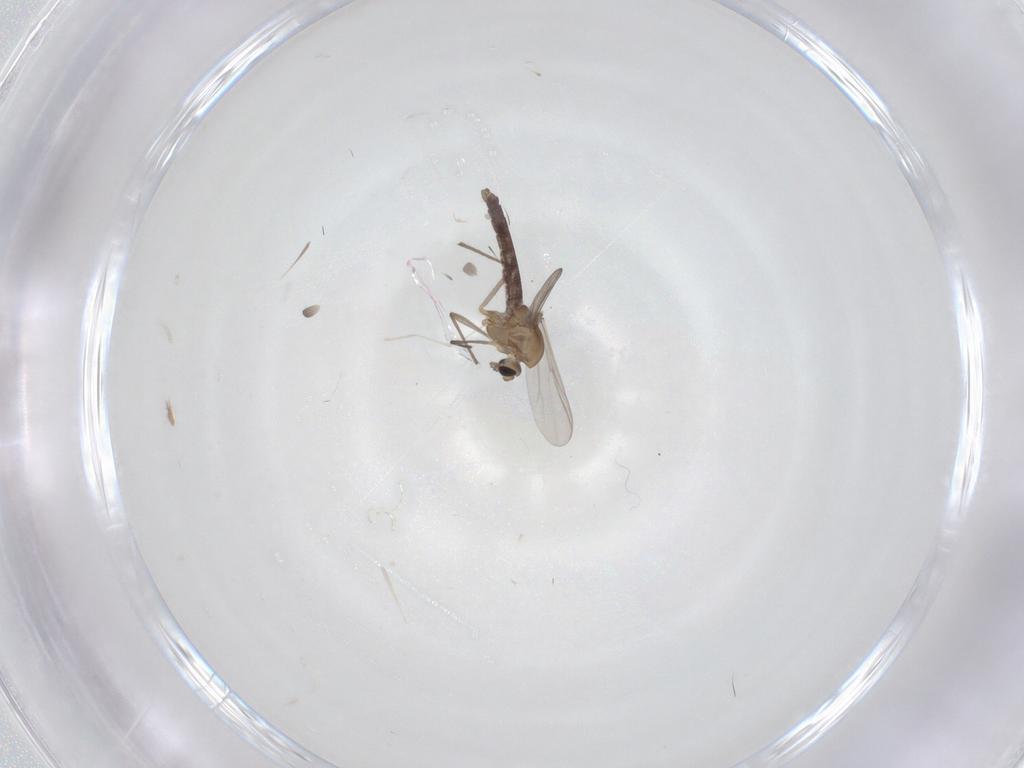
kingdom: Animalia
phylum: Arthropoda
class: Insecta
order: Diptera
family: Chironomidae
